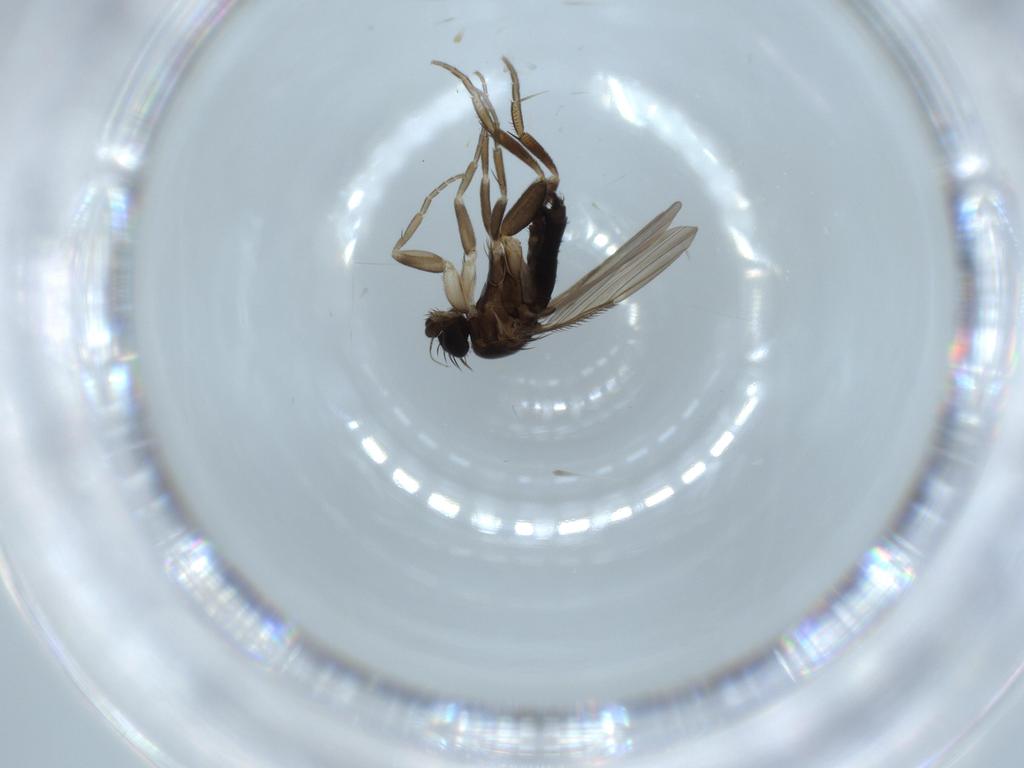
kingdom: Animalia
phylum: Arthropoda
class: Insecta
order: Diptera
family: Phoridae
